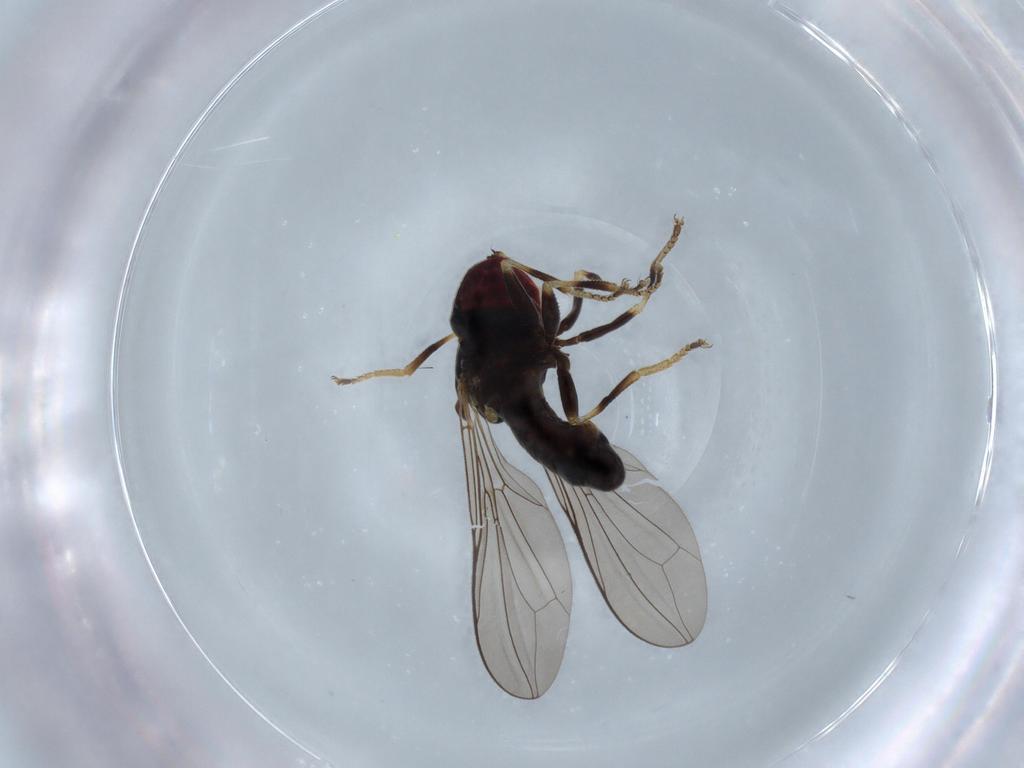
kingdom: Animalia
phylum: Arthropoda
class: Insecta
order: Diptera
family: Pipunculidae
